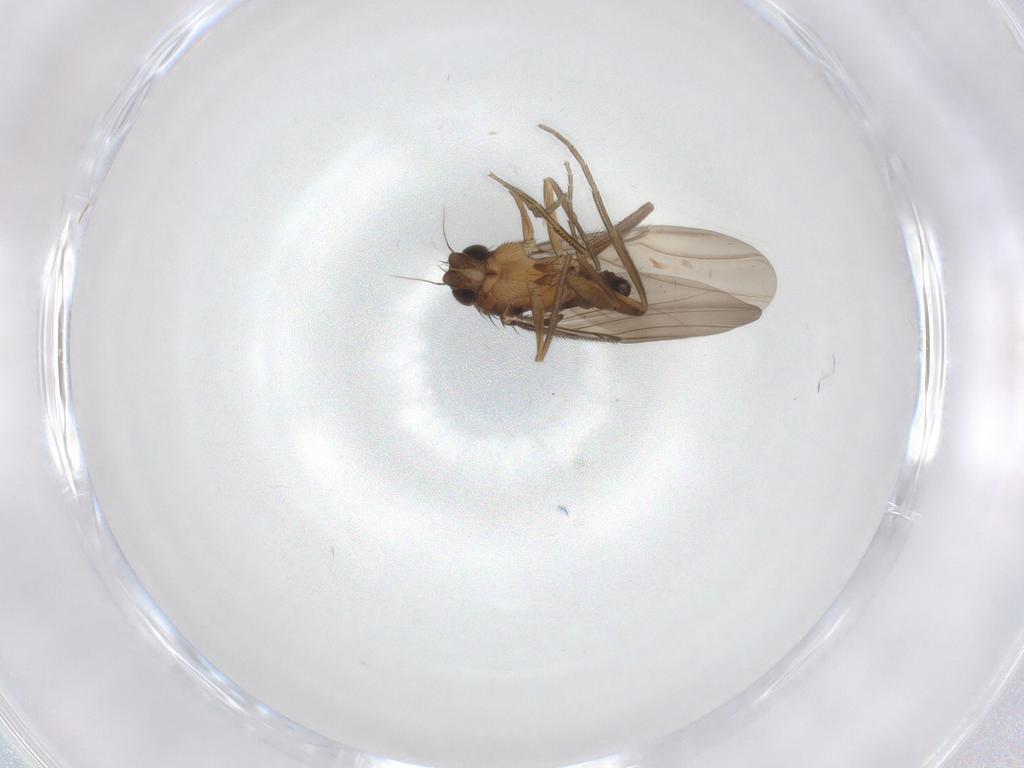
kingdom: Animalia
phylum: Arthropoda
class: Insecta
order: Diptera
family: Phoridae
